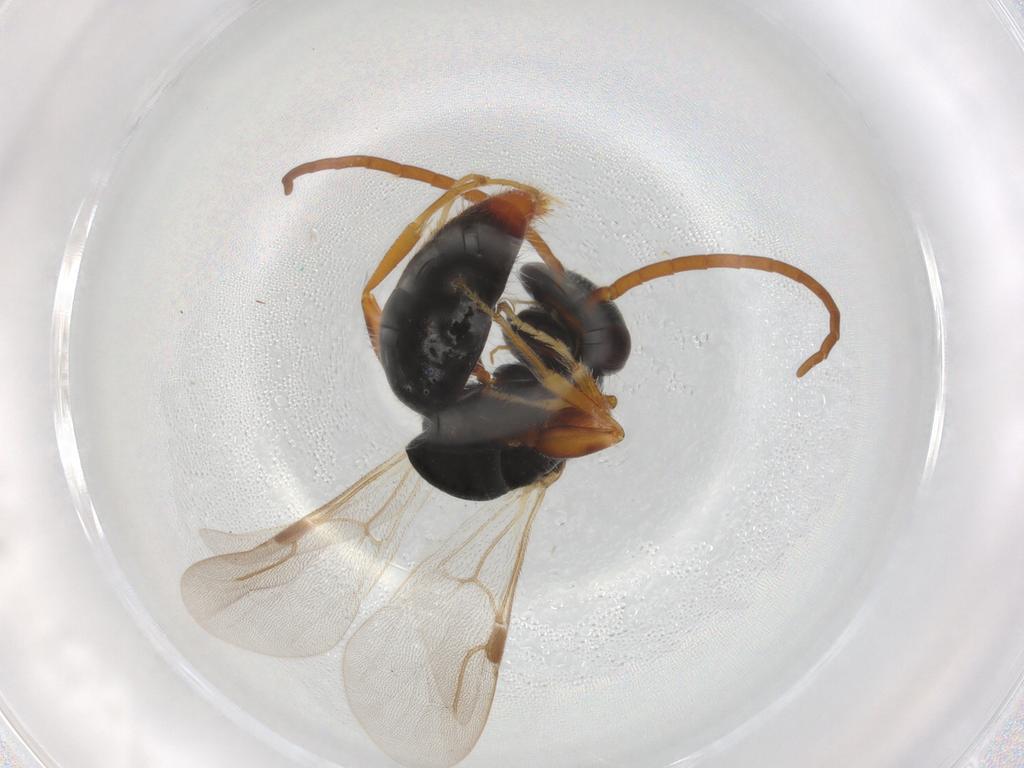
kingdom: Animalia
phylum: Arthropoda
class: Insecta
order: Hymenoptera
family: Bethylidae
